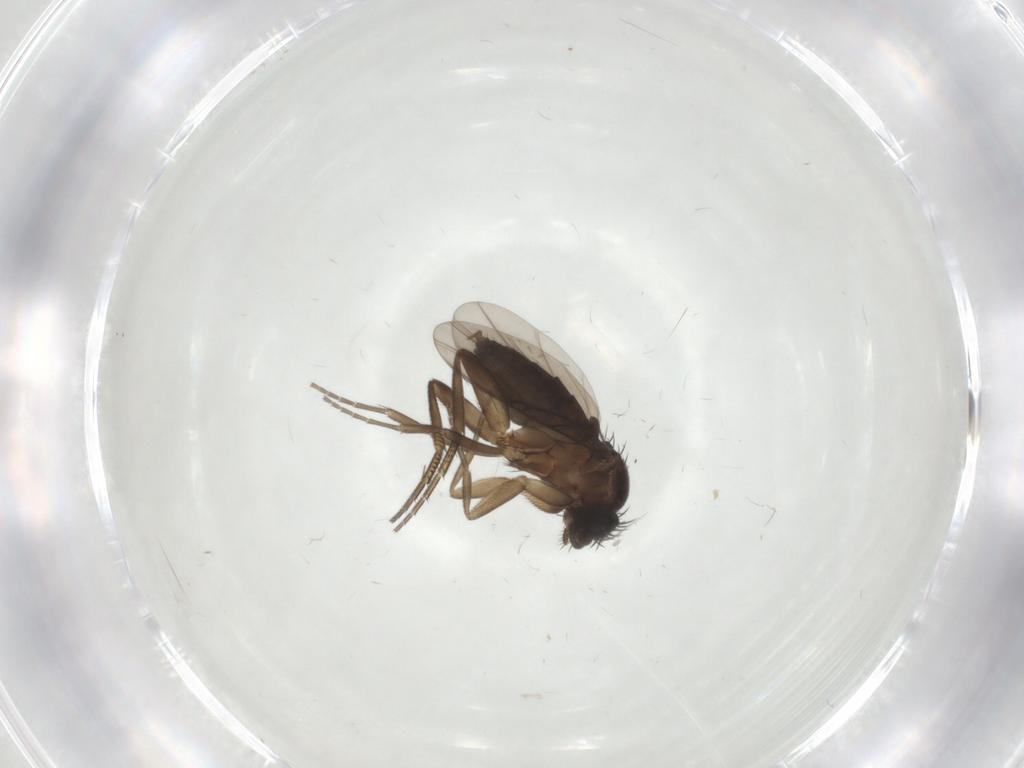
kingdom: Animalia
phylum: Arthropoda
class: Insecta
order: Diptera
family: Phoridae
